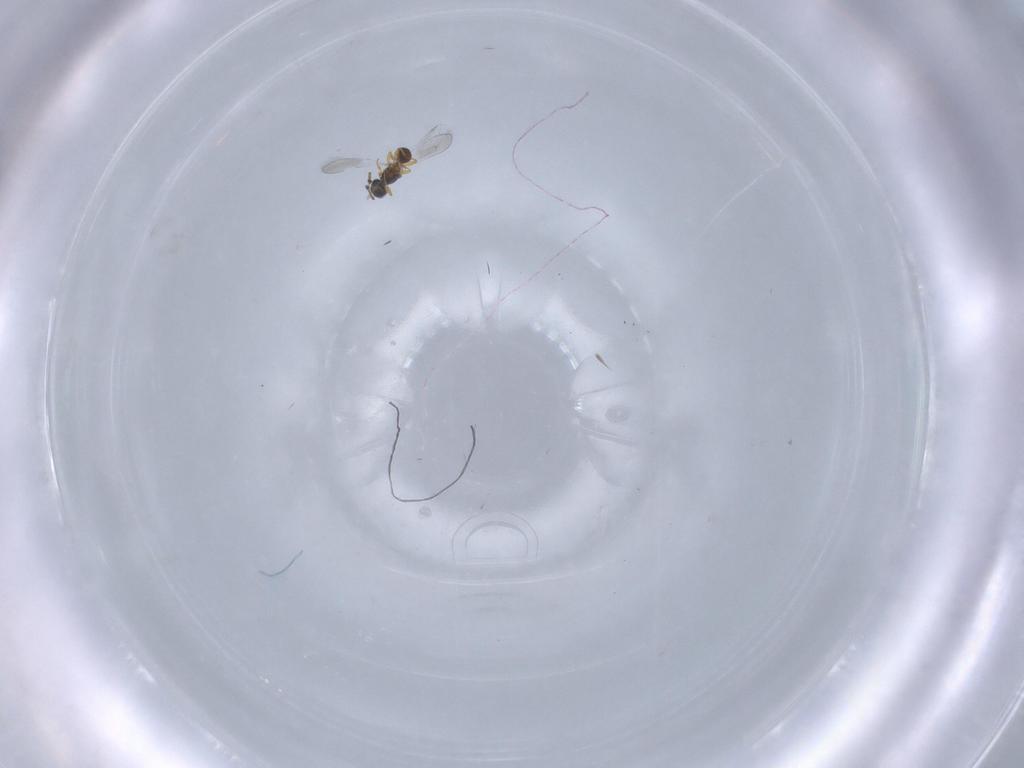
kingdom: Animalia
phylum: Arthropoda
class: Insecta
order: Hymenoptera
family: Platygastridae
